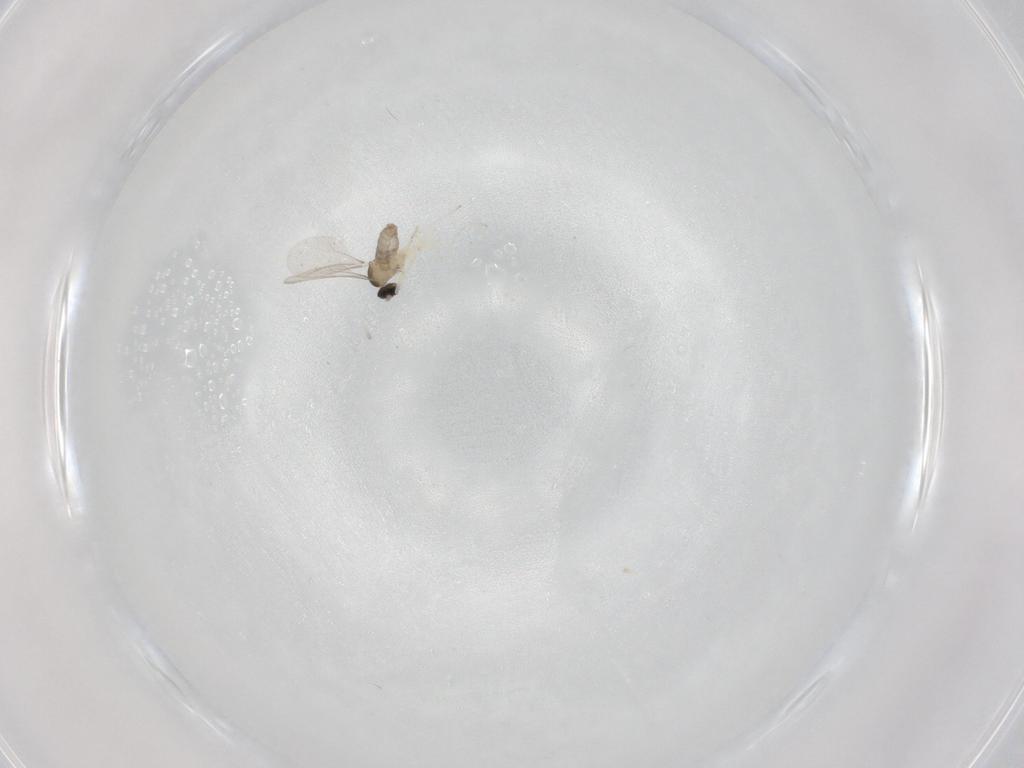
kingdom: Animalia
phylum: Arthropoda
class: Insecta
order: Diptera
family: Cecidomyiidae
